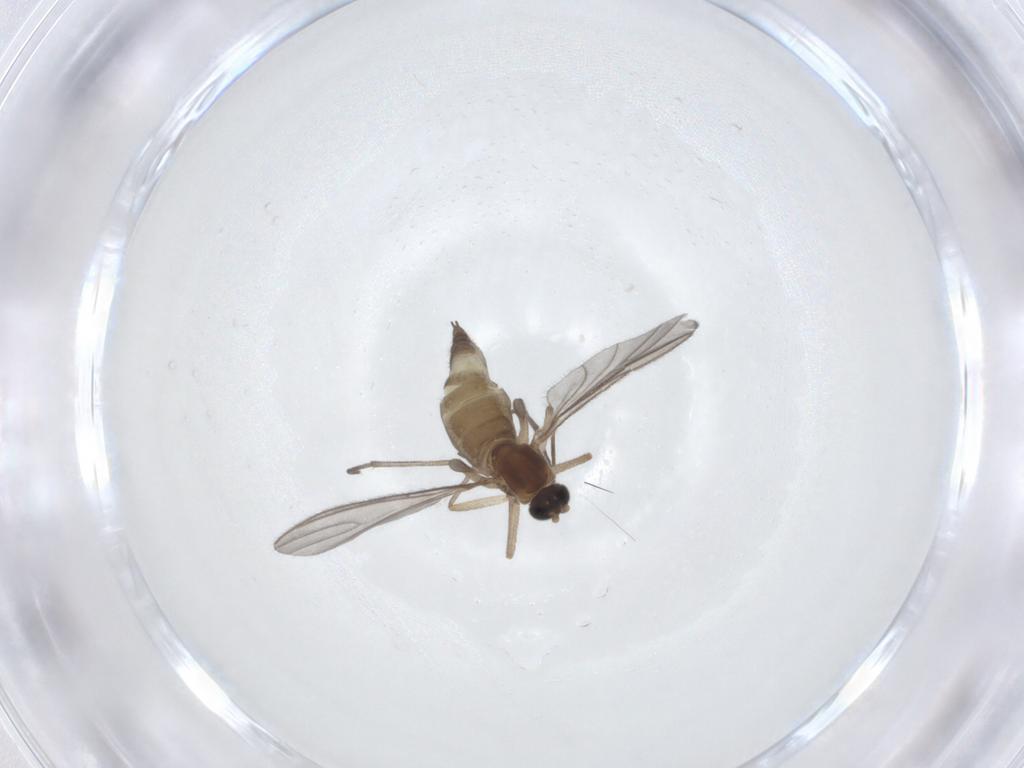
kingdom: Animalia
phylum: Arthropoda
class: Insecta
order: Diptera
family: Sciaridae
